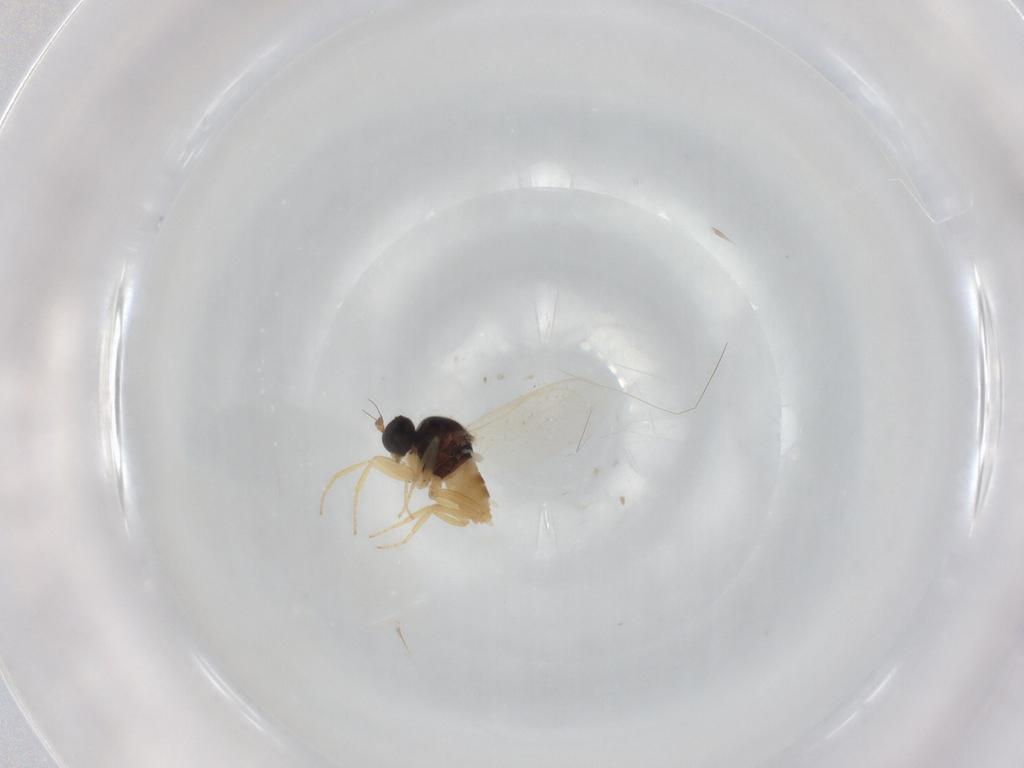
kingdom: Animalia
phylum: Arthropoda
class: Insecta
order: Diptera
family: Hybotidae
